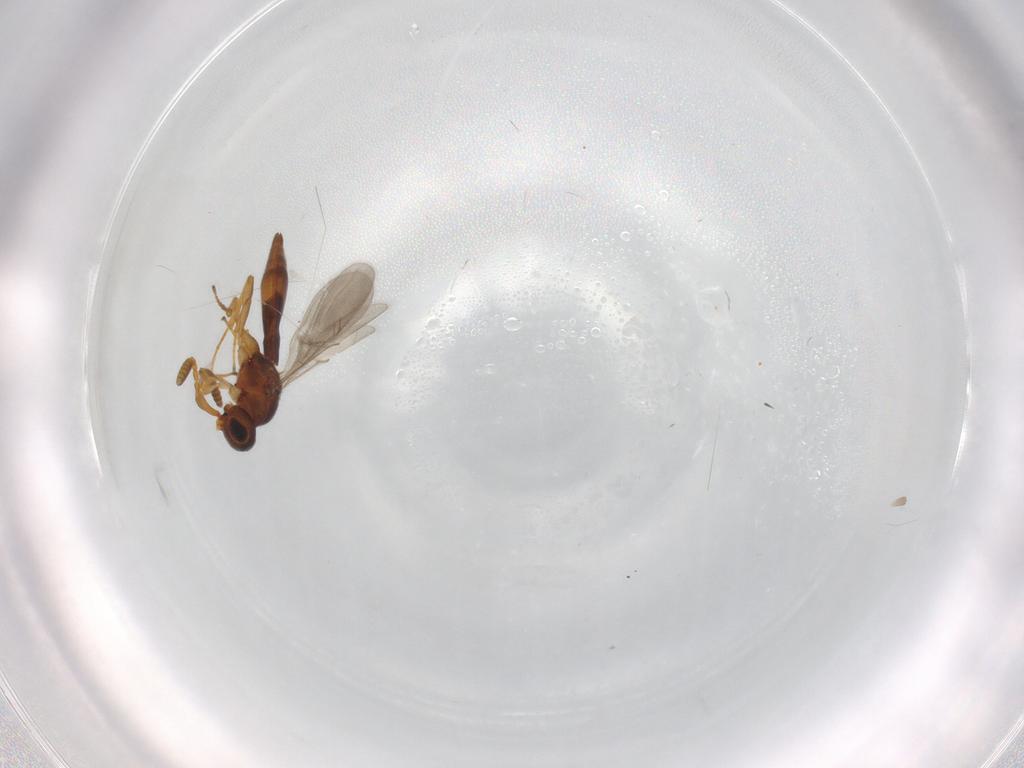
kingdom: Animalia
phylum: Arthropoda
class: Insecta
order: Hymenoptera
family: Scelionidae
